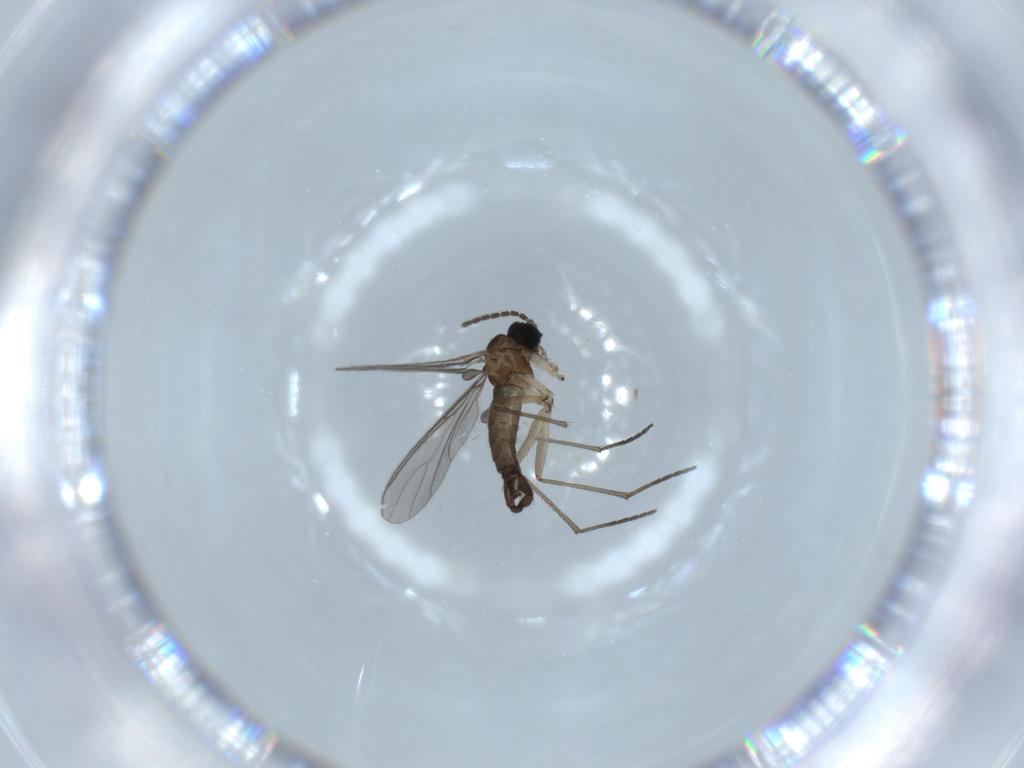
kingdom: Animalia
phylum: Arthropoda
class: Insecta
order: Diptera
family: Sciaridae
